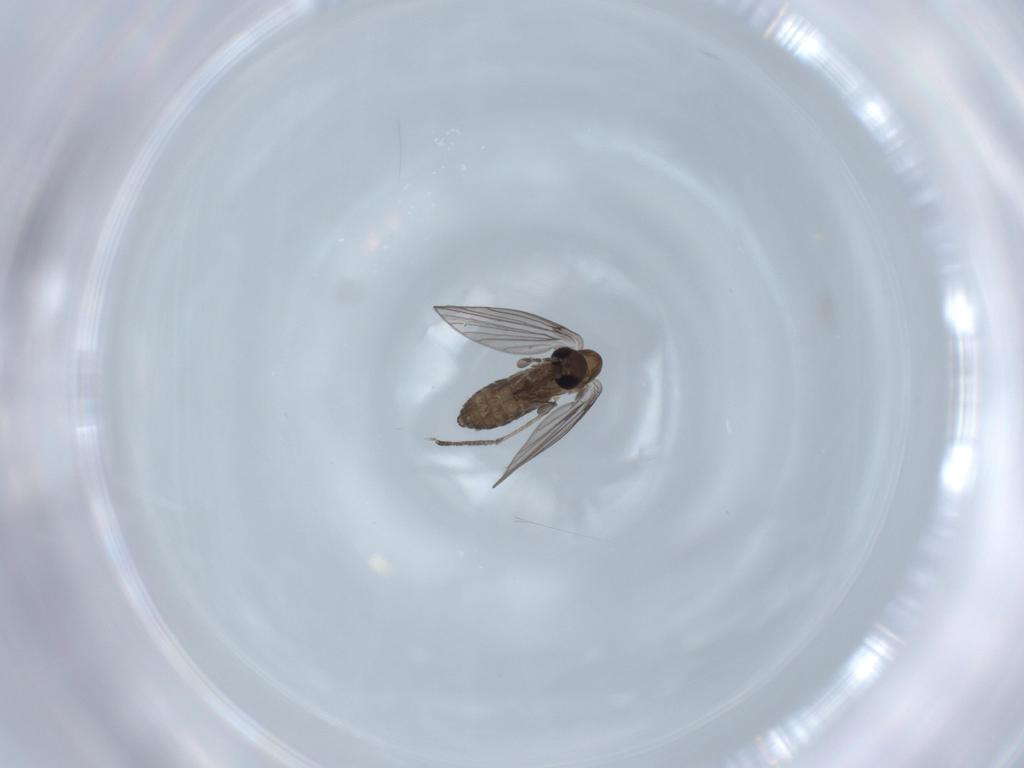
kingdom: Animalia
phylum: Arthropoda
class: Insecta
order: Diptera
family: Psychodidae
